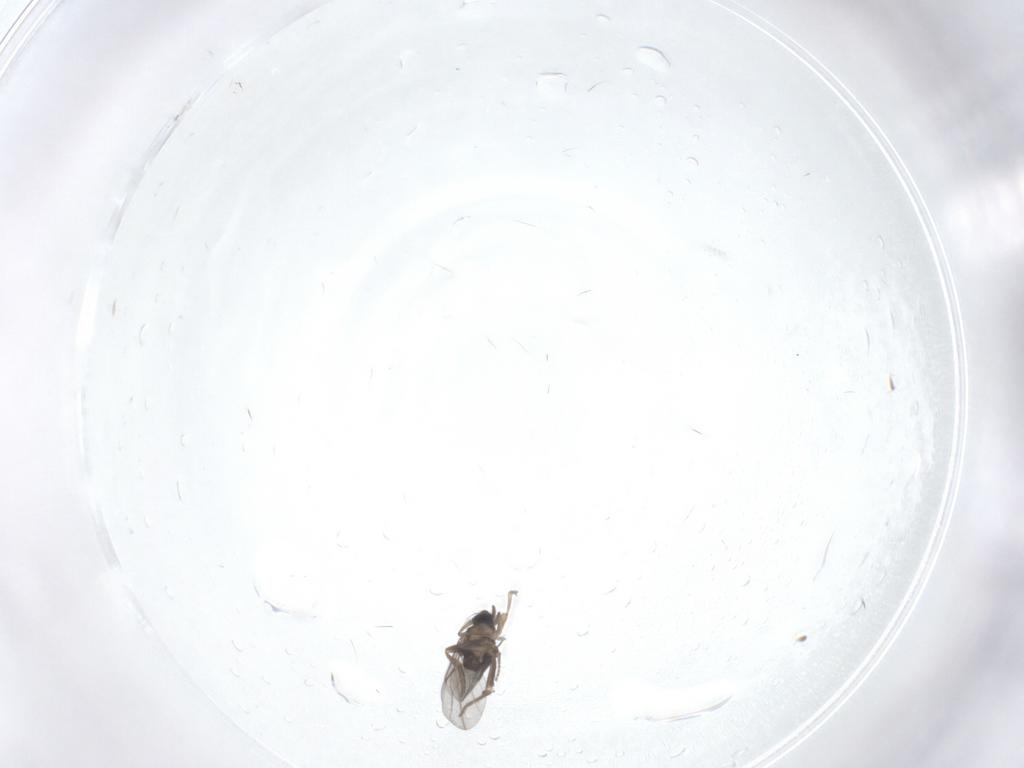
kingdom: Animalia
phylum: Arthropoda
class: Insecta
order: Diptera
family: Phoridae
